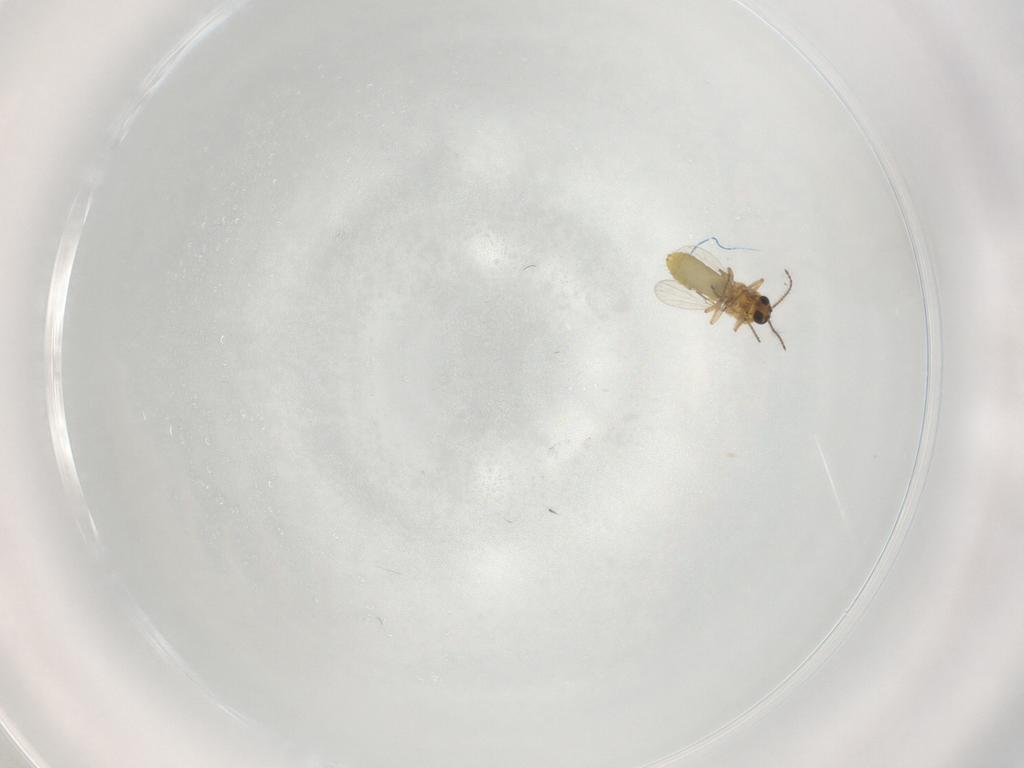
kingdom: Animalia
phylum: Arthropoda
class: Insecta
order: Diptera
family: Ceratopogonidae
